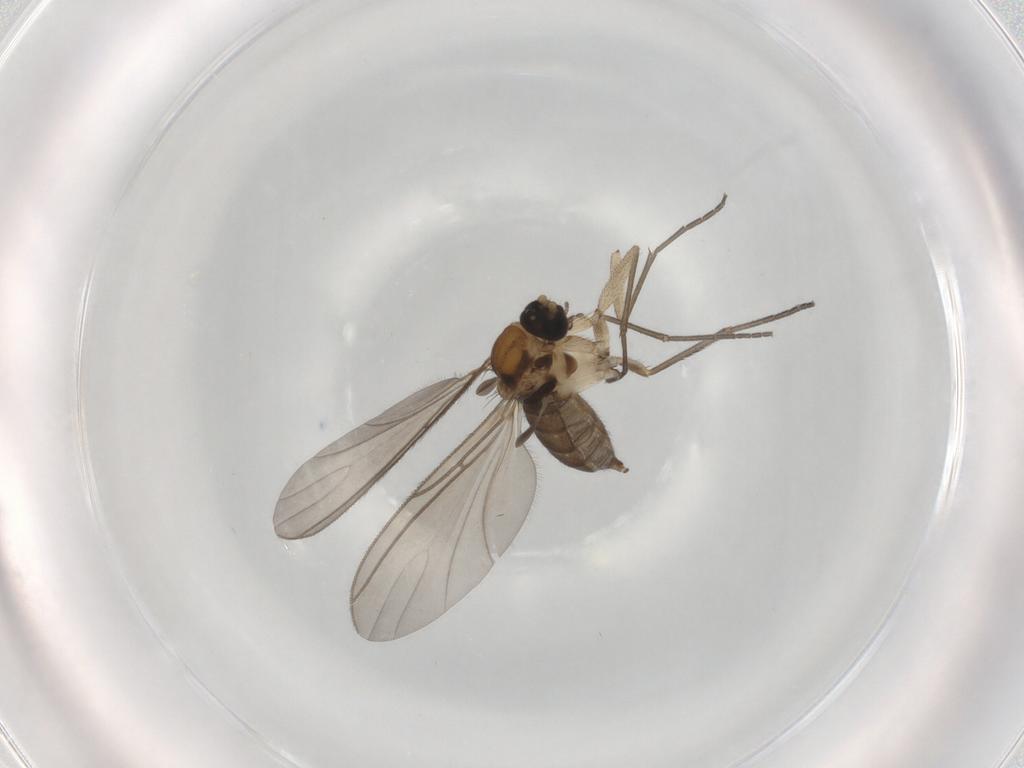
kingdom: Animalia
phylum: Arthropoda
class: Insecta
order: Diptera
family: Sciaridae
